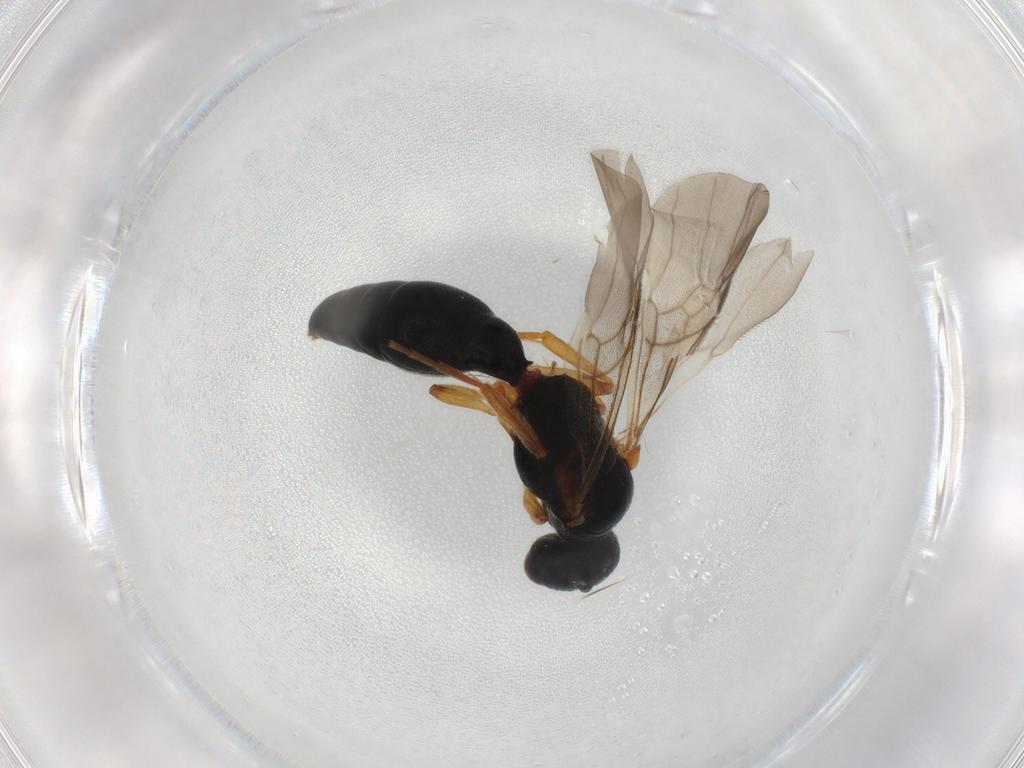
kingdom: Animalia
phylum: Arthropoda
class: Insecta
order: Hymenoptera
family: Mutillidae
